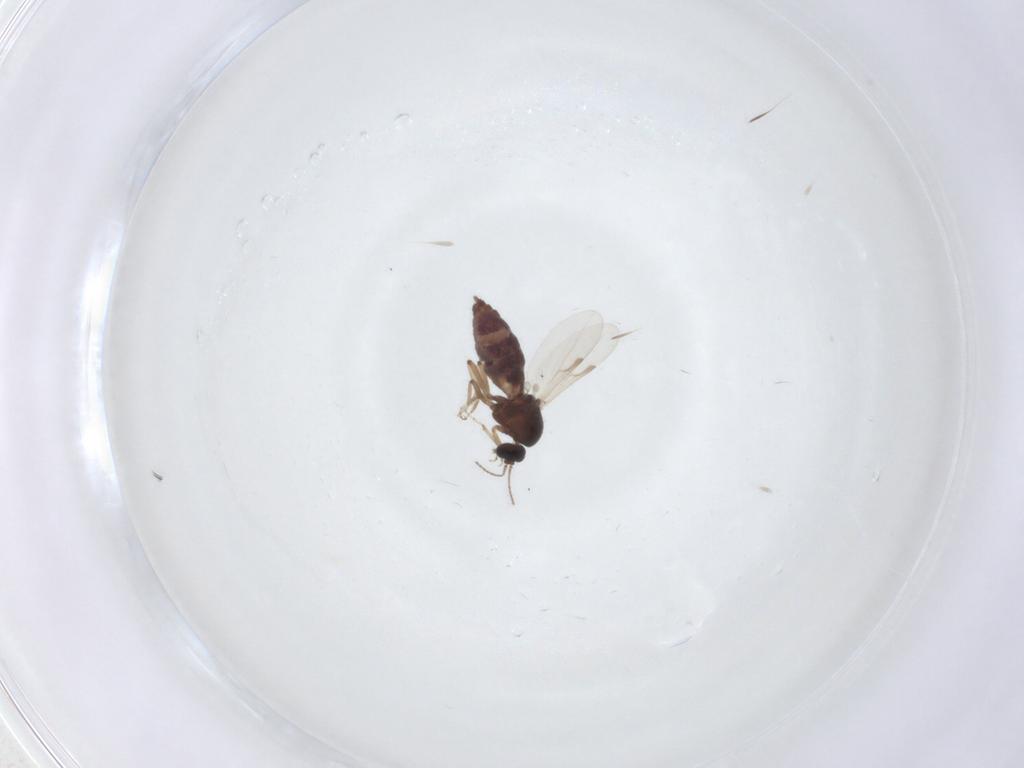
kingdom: Animalia
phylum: Arthropoda
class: Insecta
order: Diptera
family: Ceratopogonidae
